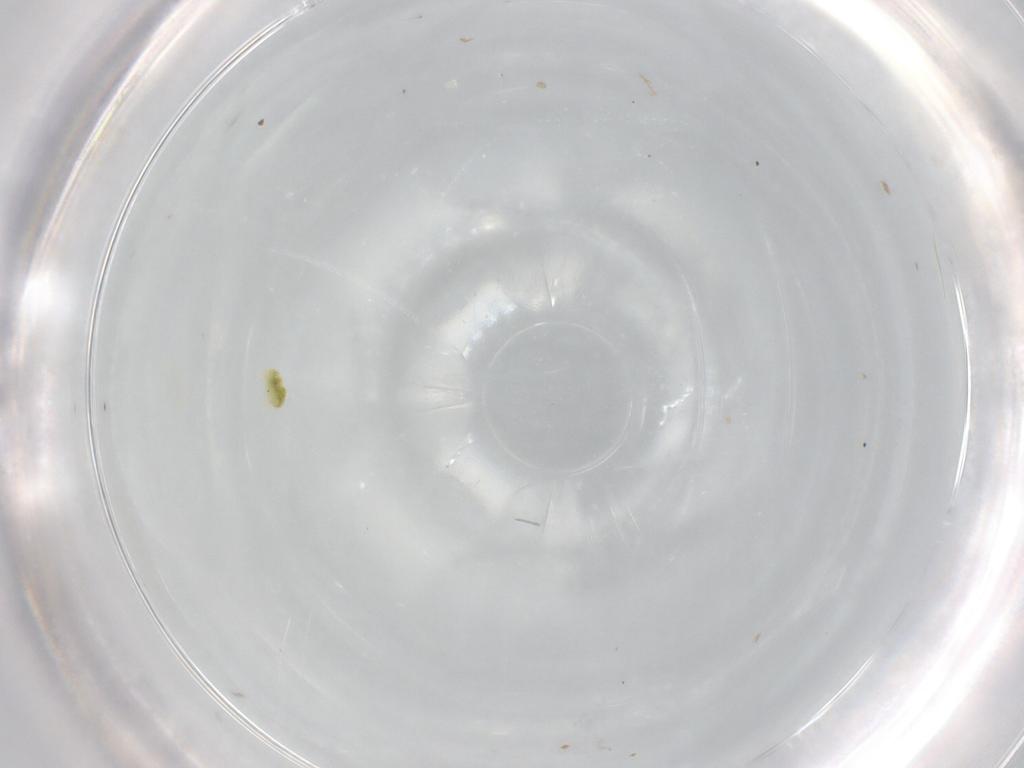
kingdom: Animalia
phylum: Arthropoda
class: Arachnida
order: Trombidiformes
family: Eupodidae
